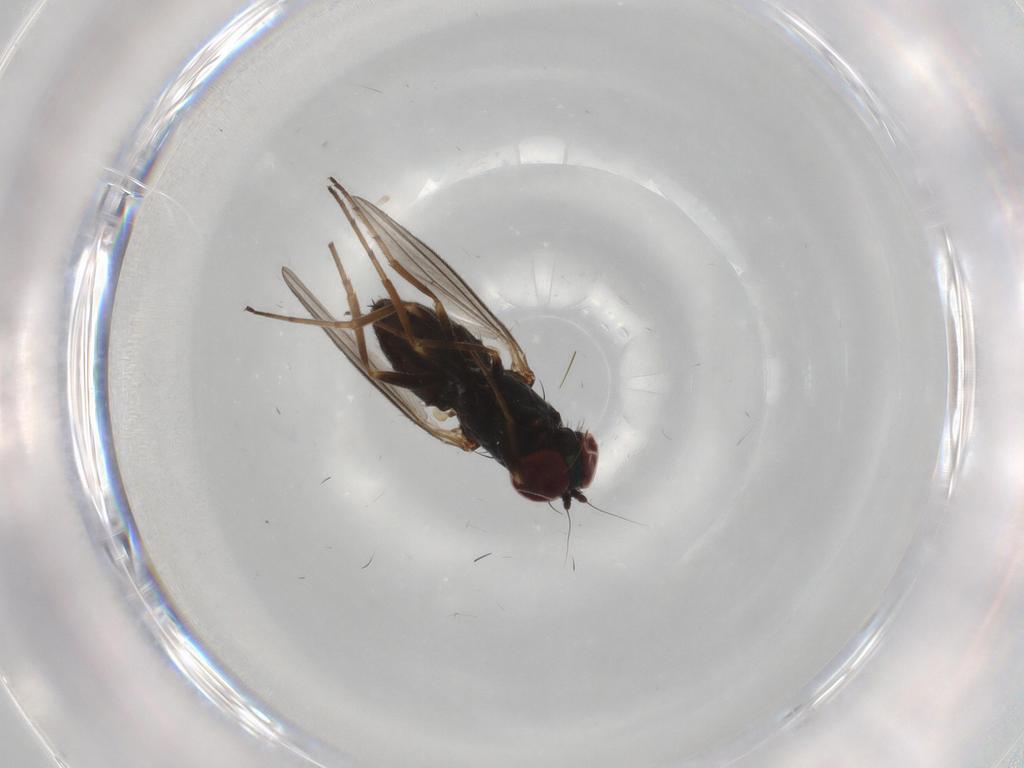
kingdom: Animalia
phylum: Arthropoda
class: Insecta
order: Diptera
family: Dolichopodidae
